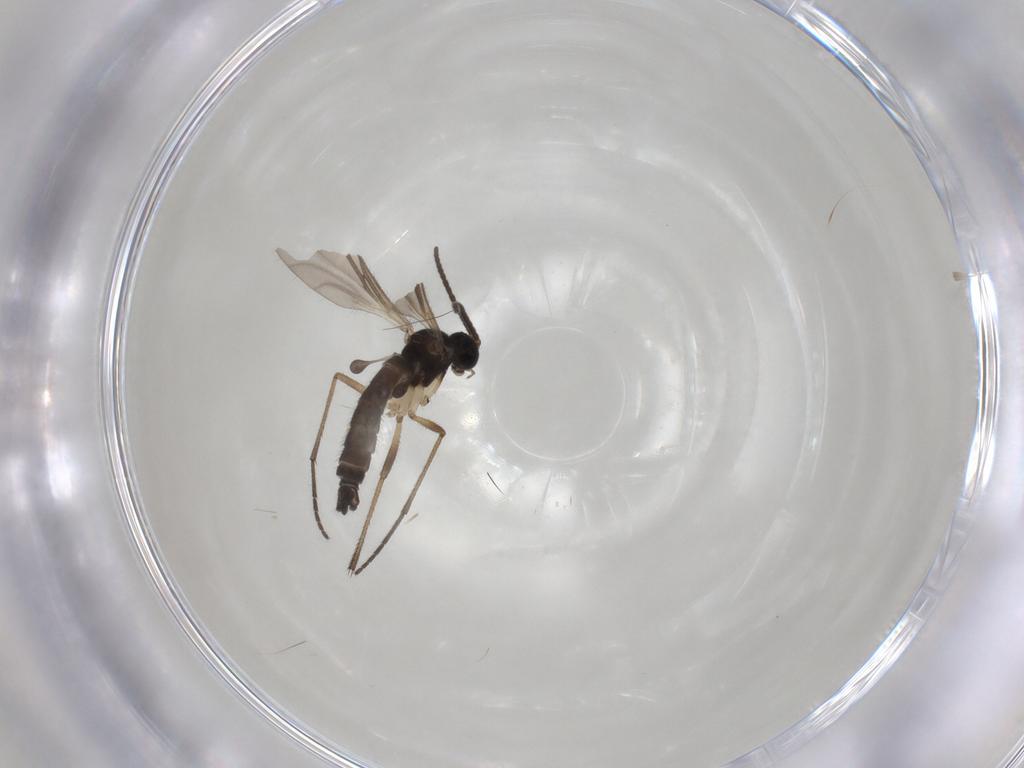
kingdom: Animalia
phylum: Arthropoda
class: Insecta
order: Diptera
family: Sciaridae
